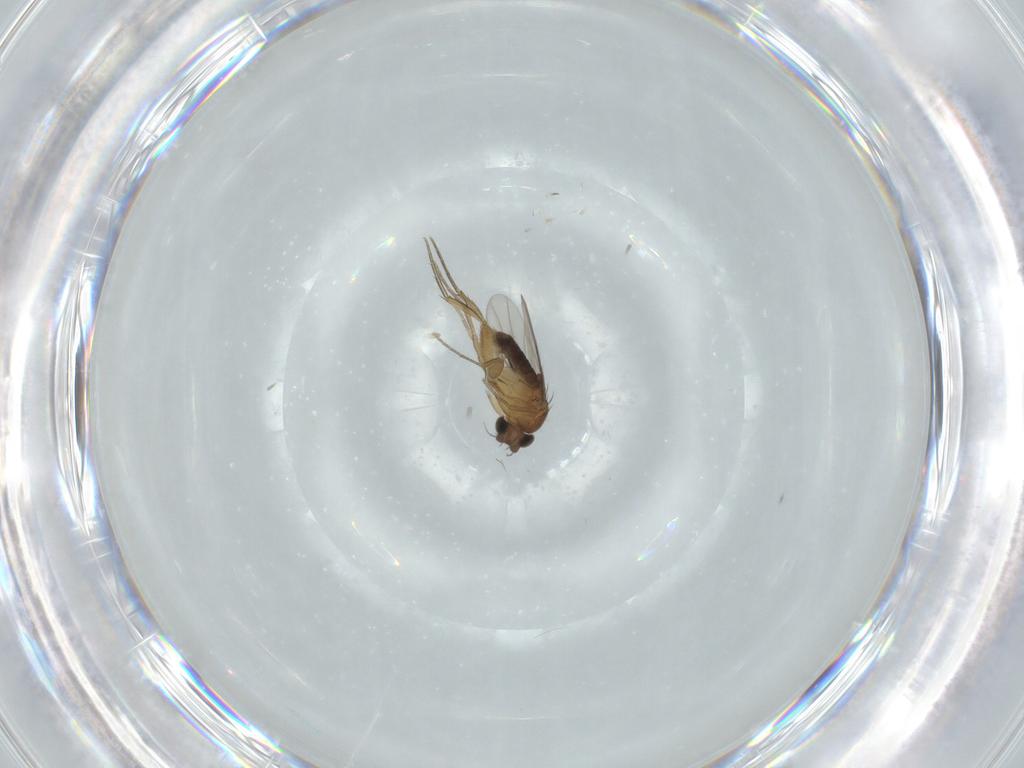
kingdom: Animalia
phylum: Arthropoda
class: Insecta
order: Diptera
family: Phoridae
